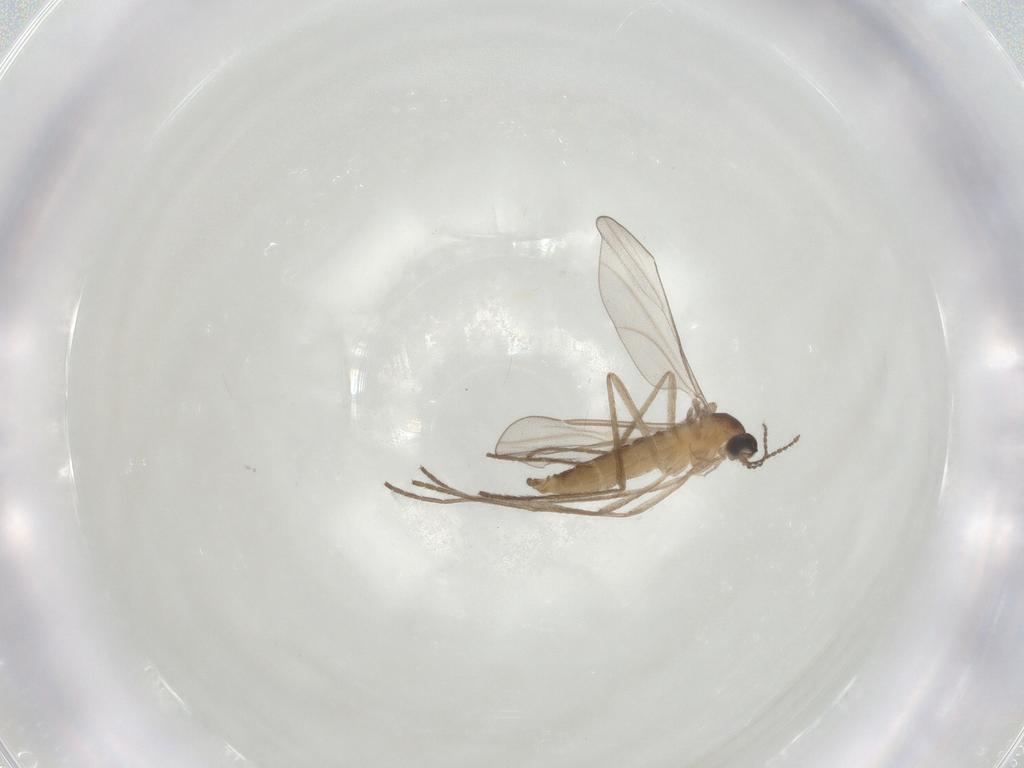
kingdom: Animalia
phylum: Arthropoda
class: Insecta
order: Diptera
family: Cecidomyiidae
